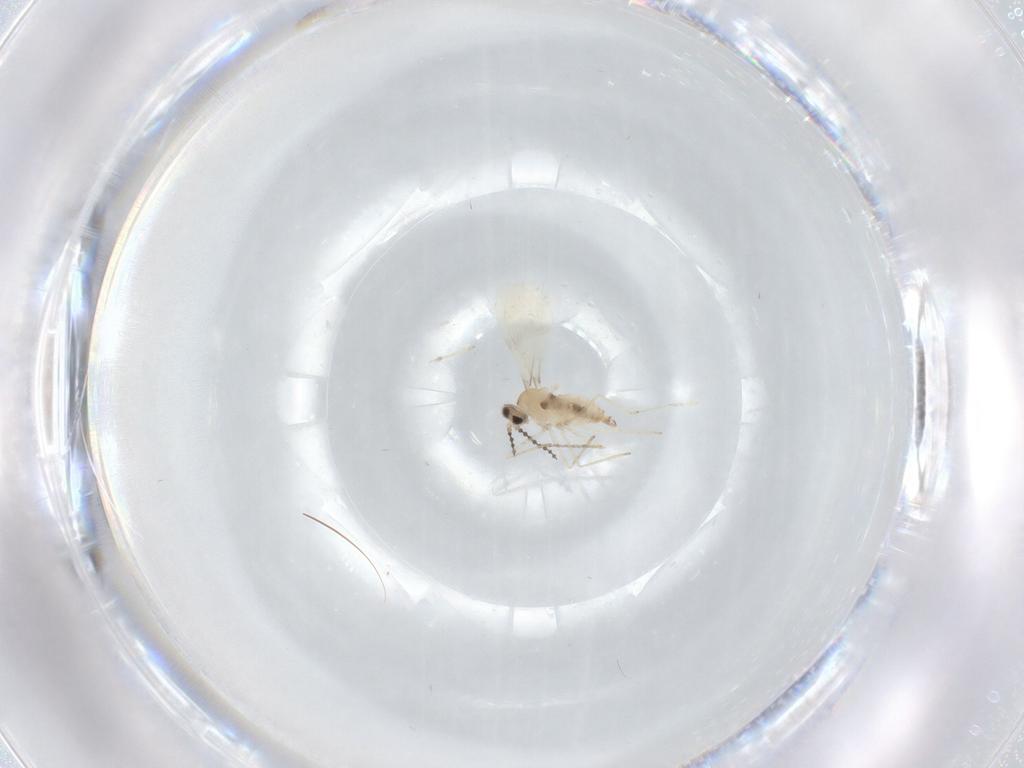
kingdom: Animalia
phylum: Arthropoda
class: Insecta
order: Diptera
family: Cecidomyiidae
